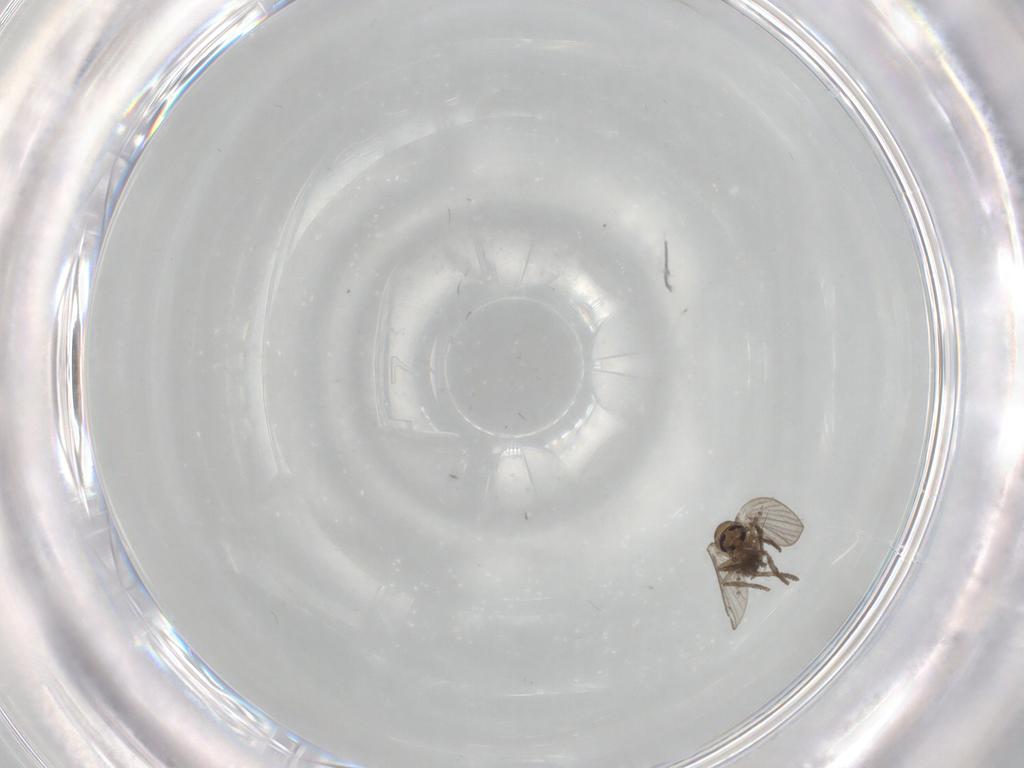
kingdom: Animalia
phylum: Arthropoda
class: Insecta
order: Diptera
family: Psychodidae
